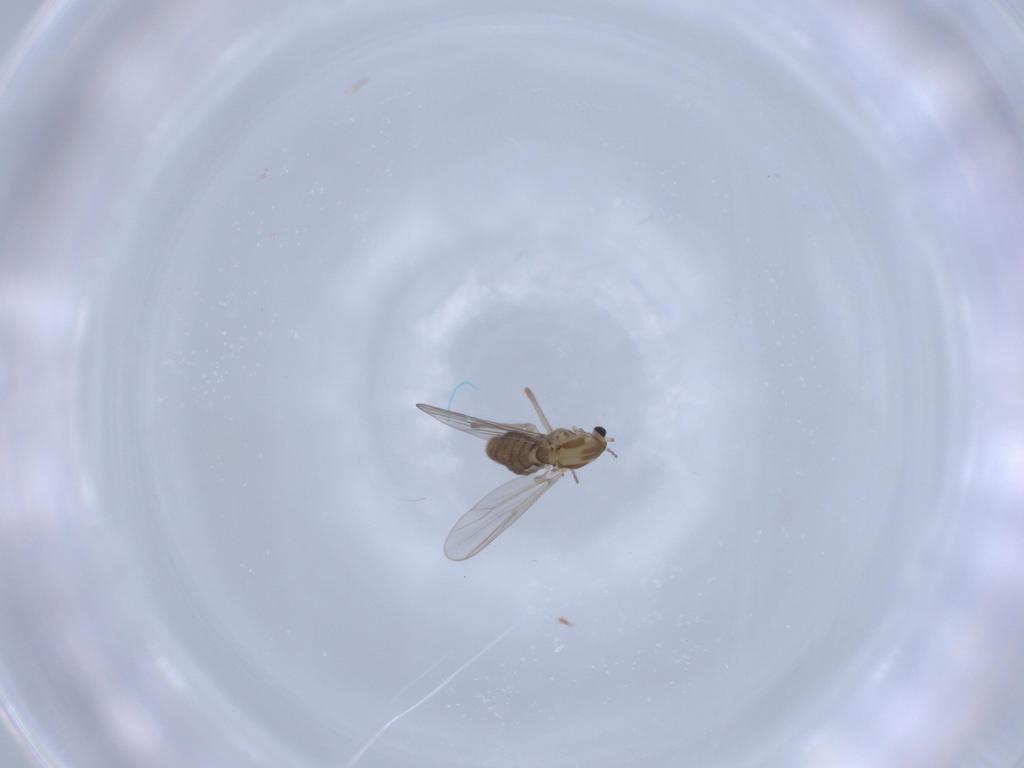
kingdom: Animalia
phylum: Arthropoda
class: Insecta
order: Diptera
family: Chironomidae
